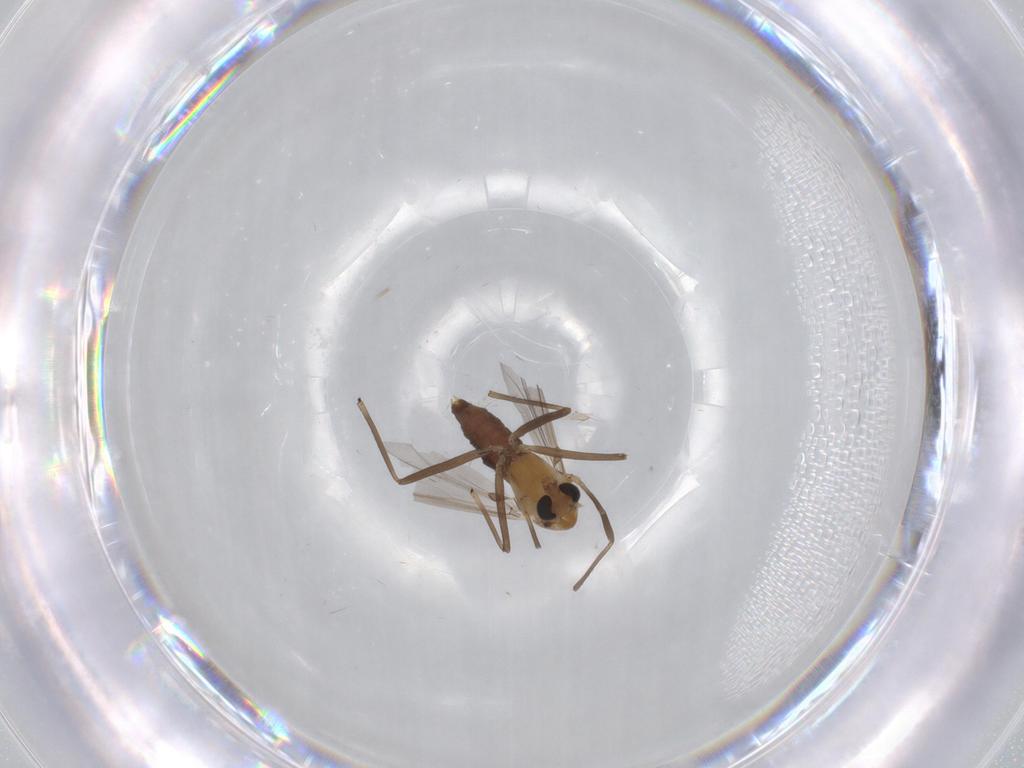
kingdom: Animalia
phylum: Arthropoda
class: Insecta
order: Diptera
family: Chironomidae
